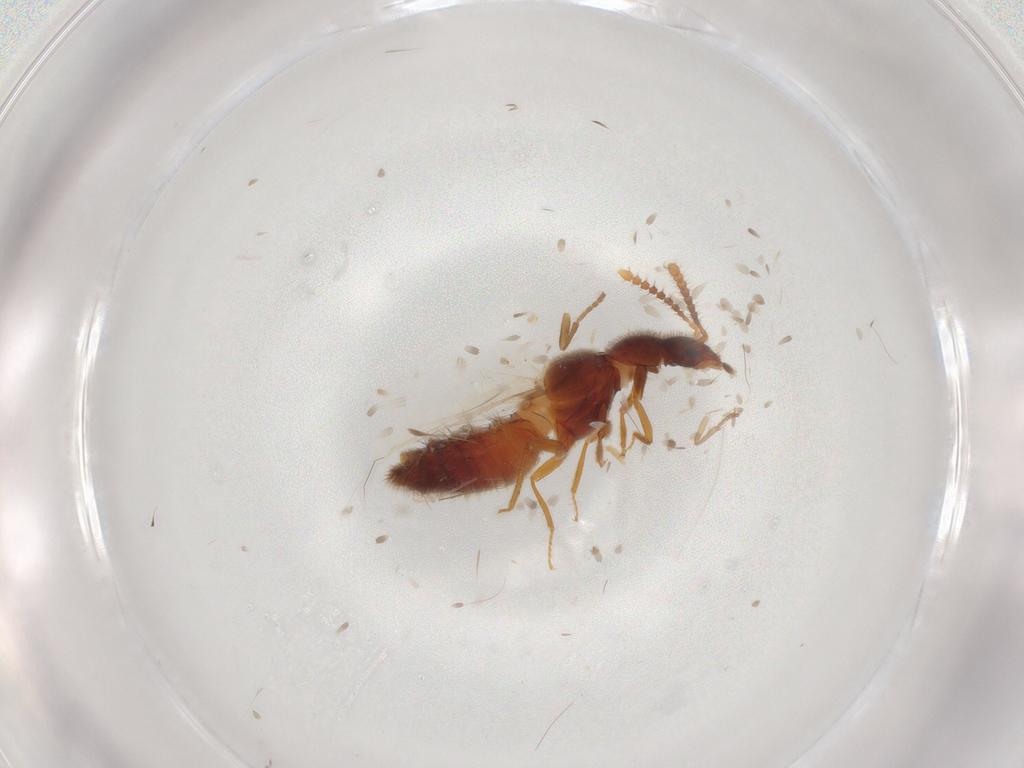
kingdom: Animalia
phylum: Arthropoda
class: Insecta
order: Coleoptera
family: Staphylinidae
